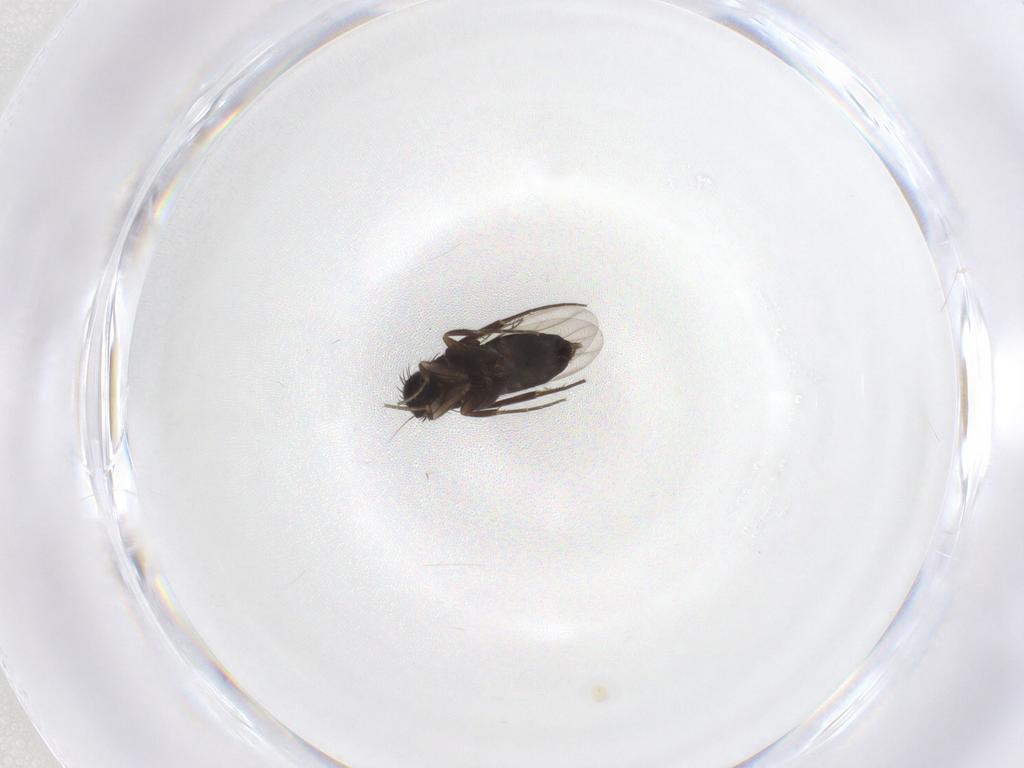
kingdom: Animalia
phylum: Arthropoda
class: Insecta
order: Diptera
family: Phoridae
